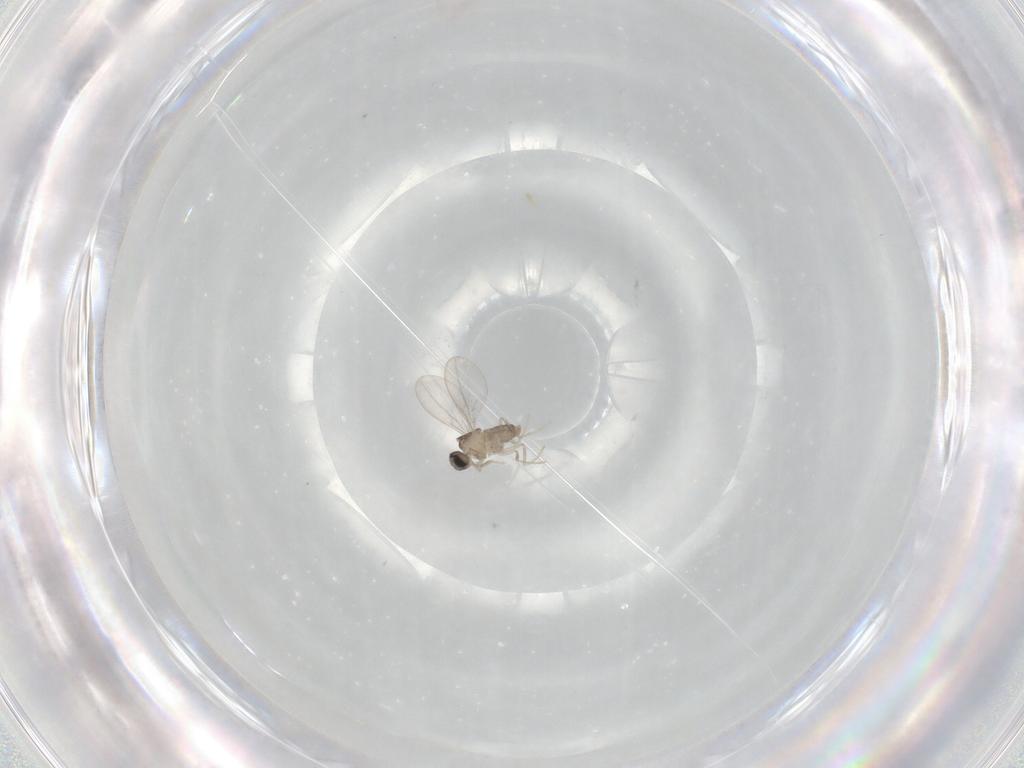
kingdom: Animalia
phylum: Arthropoda
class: Insecta
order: Diptera
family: Cecidomyiidae
